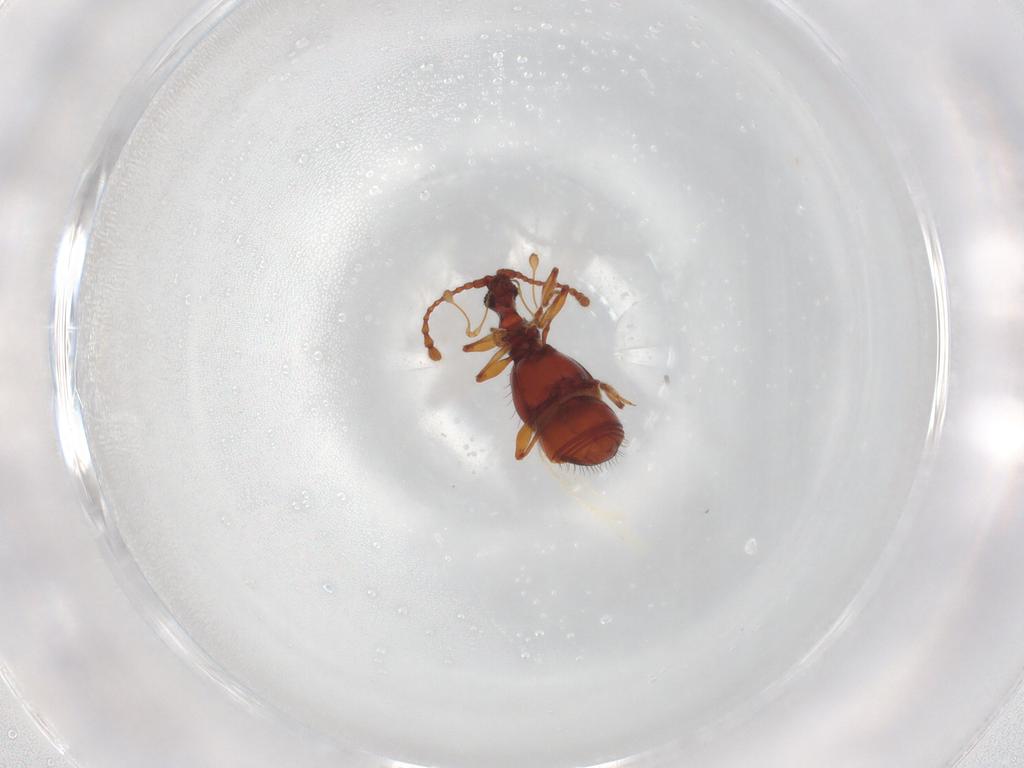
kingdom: Animalia
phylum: Arthropoda
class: Insecta
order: Coleoptera
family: Staphylinidae
